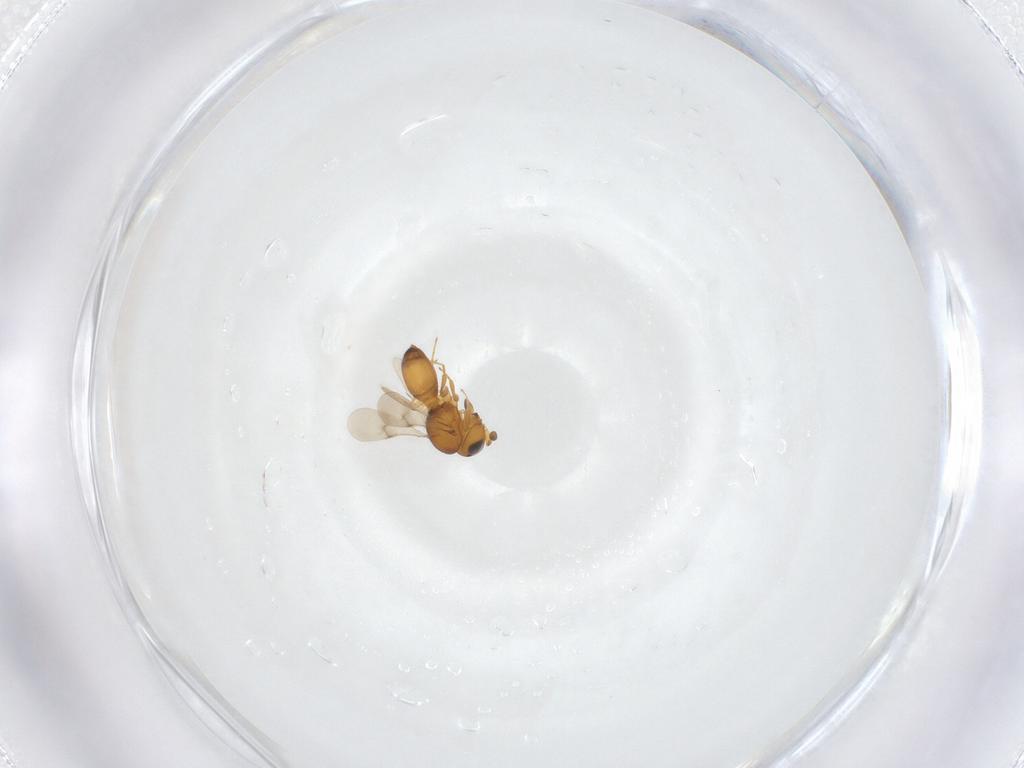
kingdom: Animalia
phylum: Arthropoda
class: Insecta
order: Hymenoptera
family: Scelionidae
